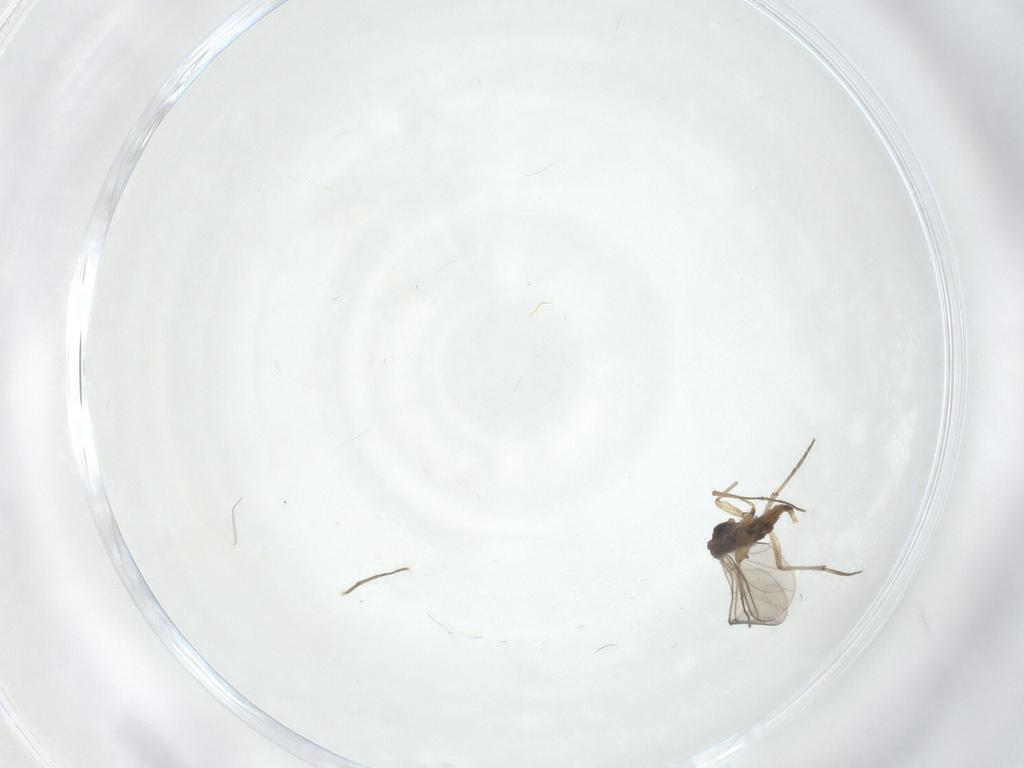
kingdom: Animalia
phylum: Arthropoda
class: Insecta
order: Diptera
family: Sciaridae
